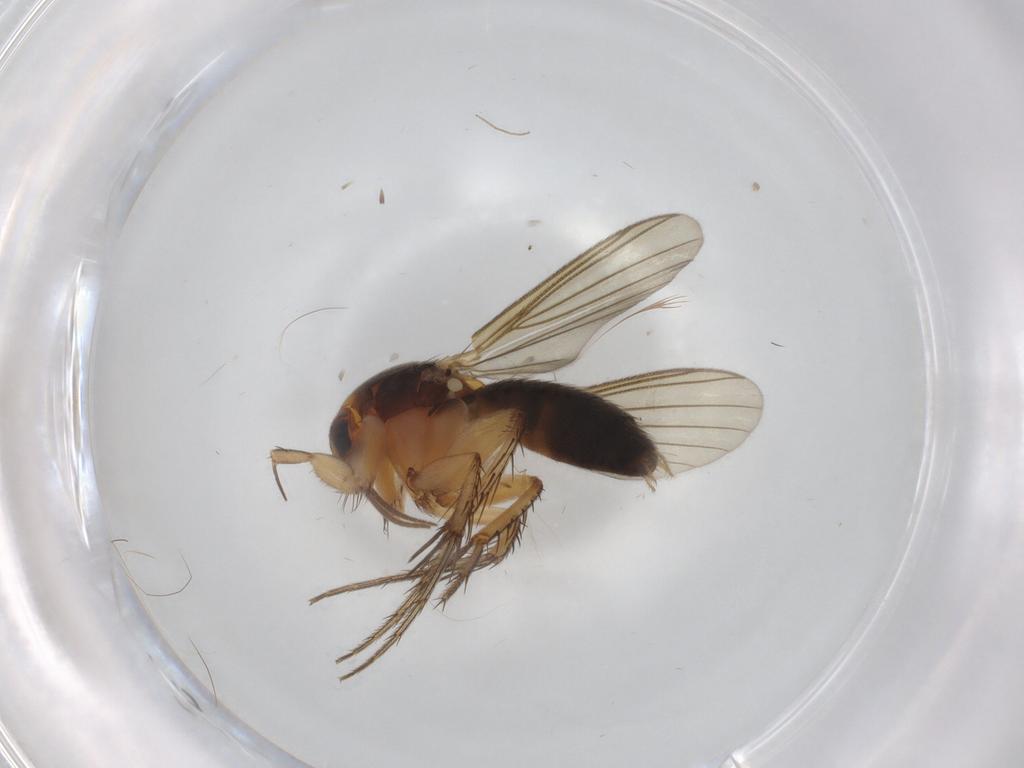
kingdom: Animalia
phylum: Arthropoda
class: Insecta
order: Diptera
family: Mycetophilidae
